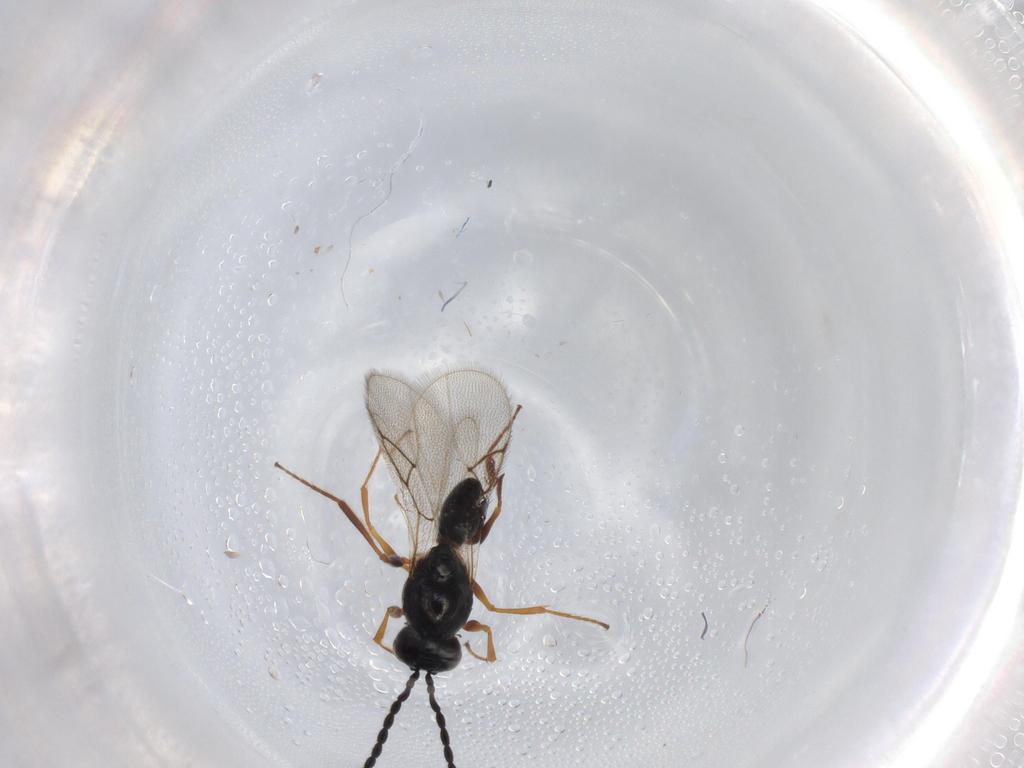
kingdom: Animalia
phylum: Arthropoda
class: Insecta
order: Hymenoptera
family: Figitidae
